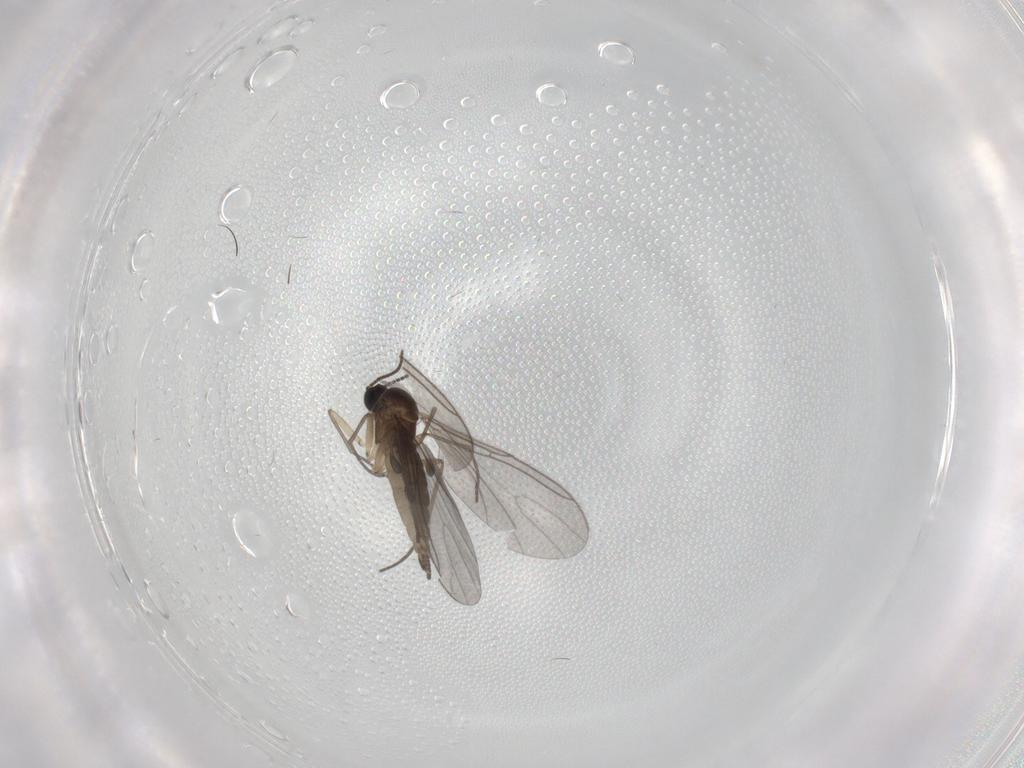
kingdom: Animalia
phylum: Arthropoda
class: Insecta
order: Diptera
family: Sciaridae
